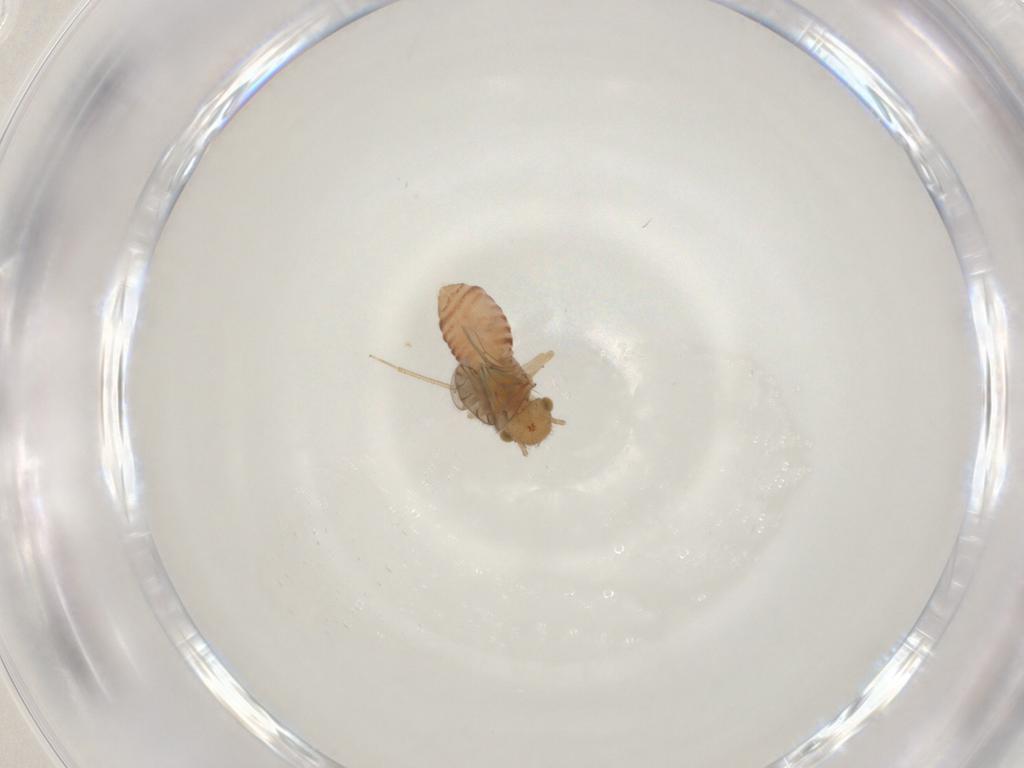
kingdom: Animalia
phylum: Arthropoda
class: Insecta
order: Psocodea
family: Ectopsocidae
